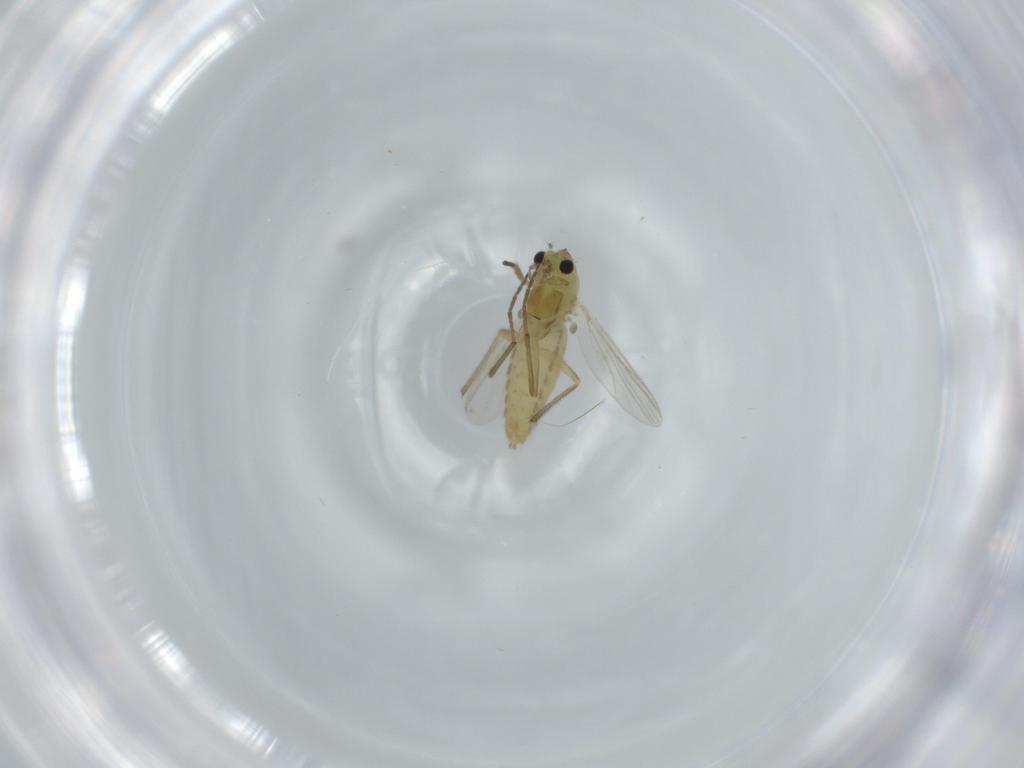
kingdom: Animalia
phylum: Arthropoda
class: Insecta
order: Diptera
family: Chironomidae
